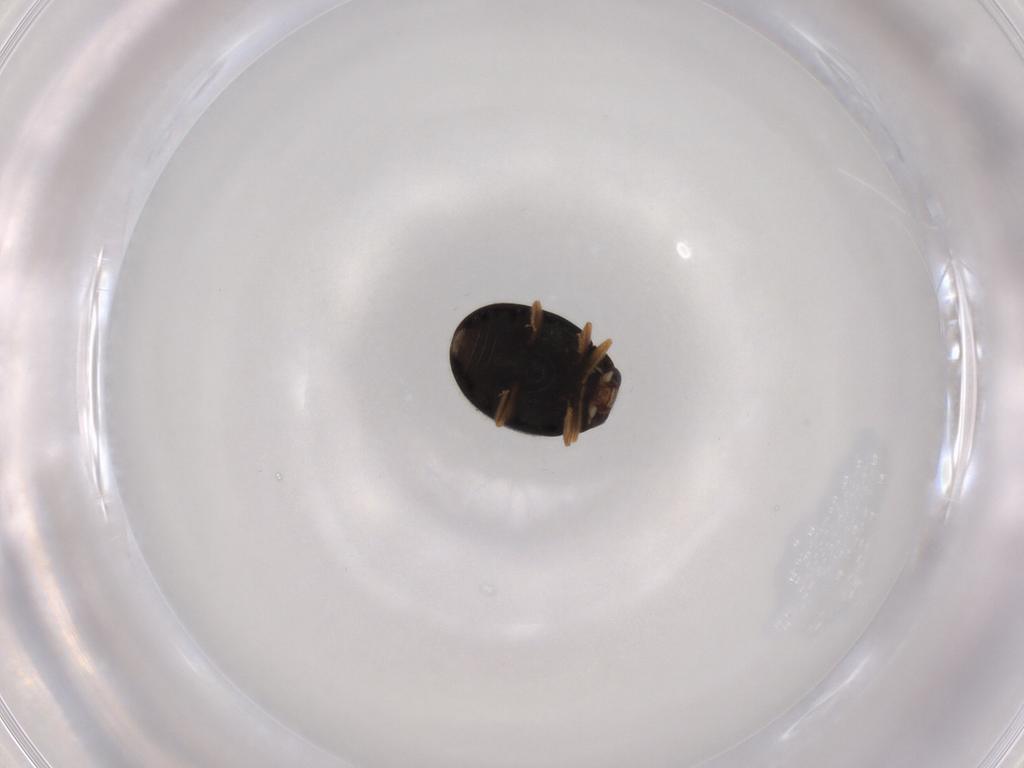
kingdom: Animalia
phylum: Arthropoda
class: Insecta
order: Coleoptera
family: Coccinellidae
